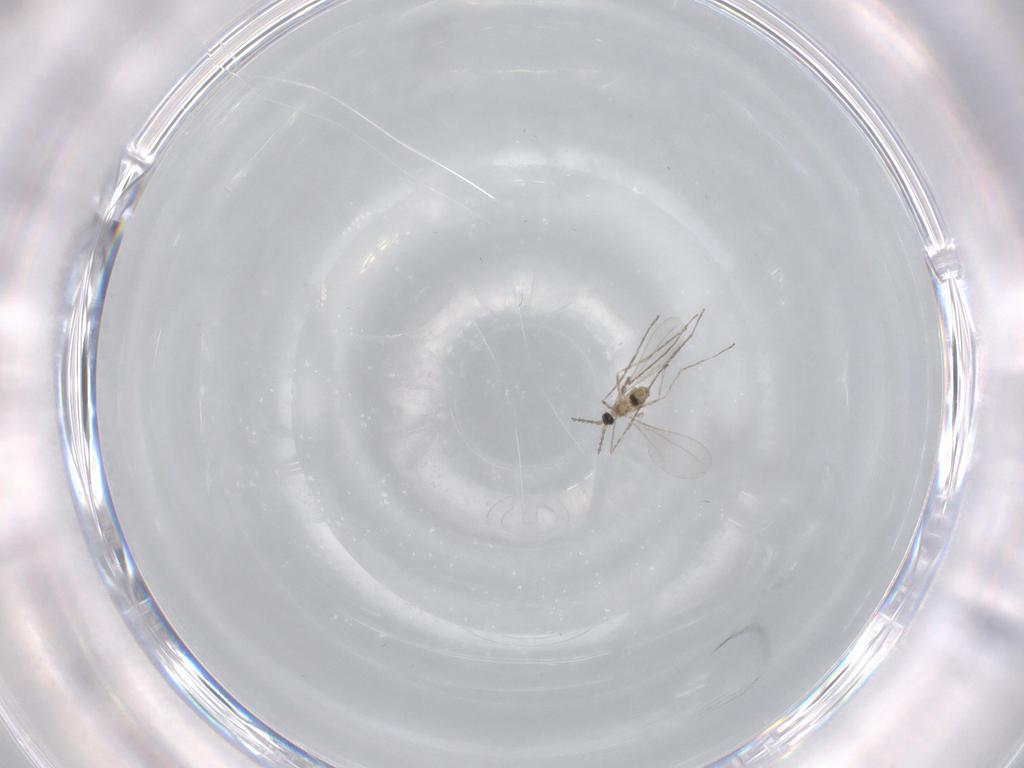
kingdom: Animalia
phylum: Arthropoda
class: Insecta
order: Diptera
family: Cecidomyiidae
